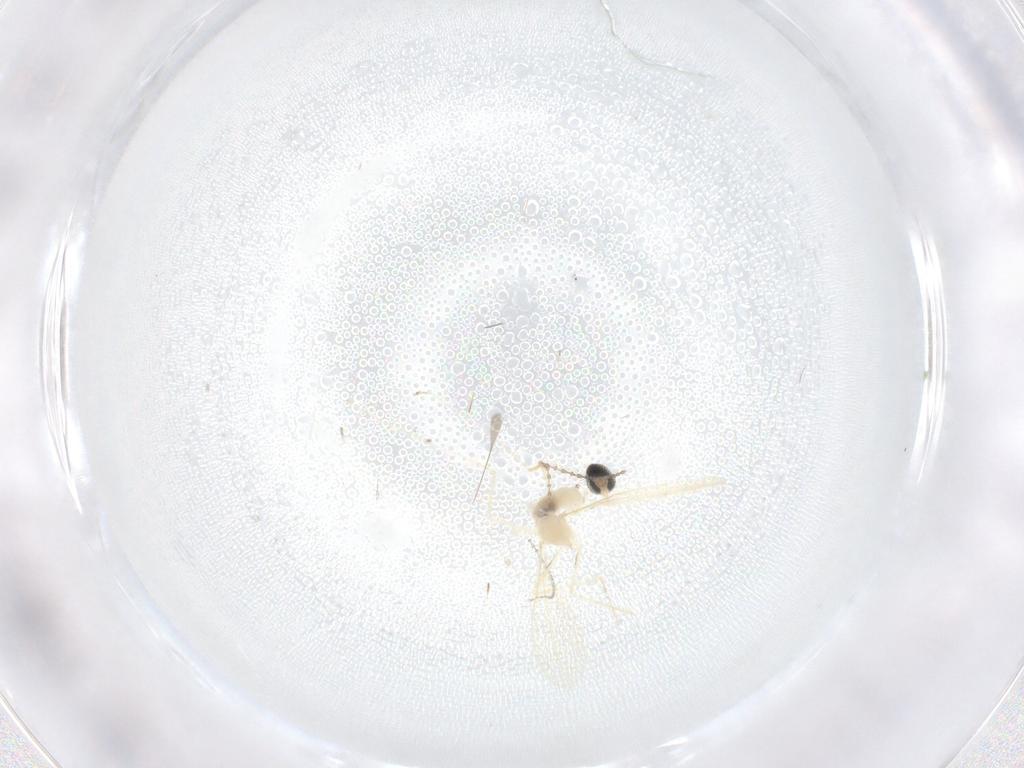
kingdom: Animalia
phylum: Arthropoda
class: Insecta
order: Diptera
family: Cecidomyiidae
